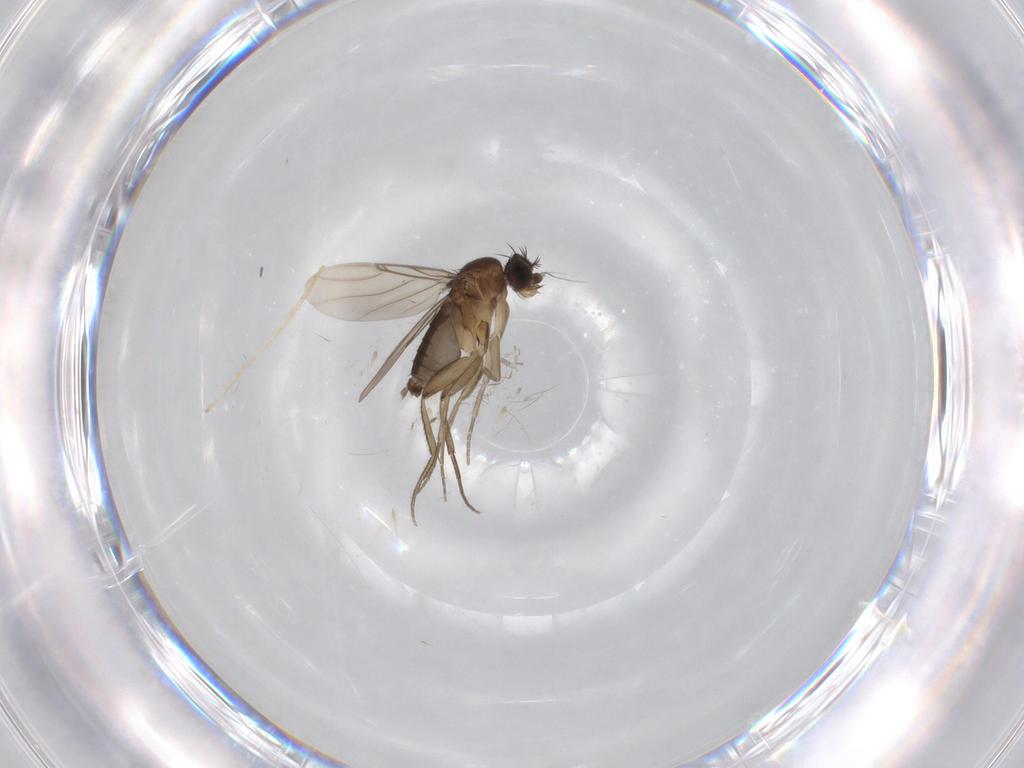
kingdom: Animalia
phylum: Arthropoda
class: Insecta
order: Diptera
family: Phoridae
